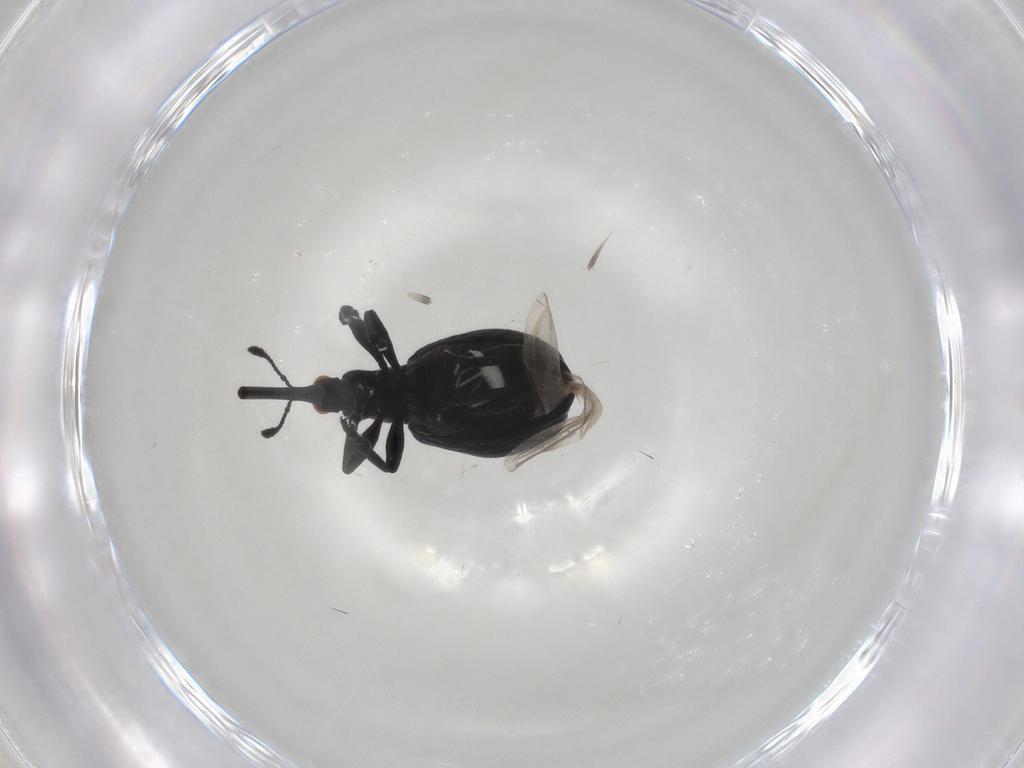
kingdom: Animalia
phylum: Arthropoda
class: Insecta
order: Coleoptera
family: Brentidae
